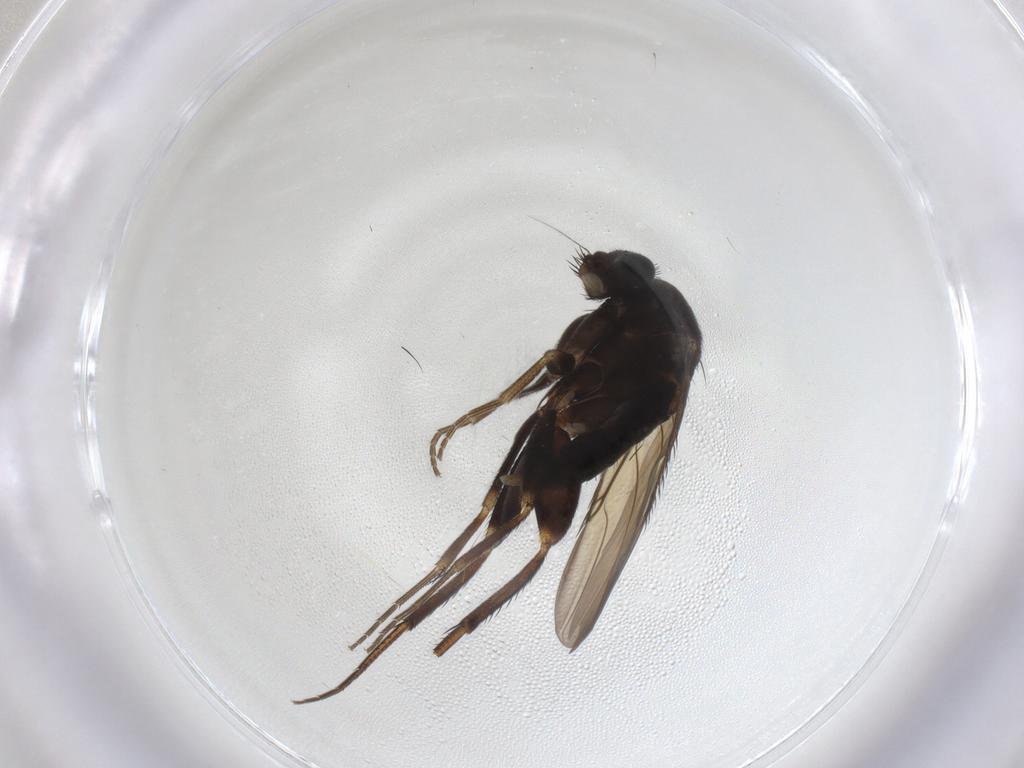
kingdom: Animalia
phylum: Arthropoda
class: Insecta
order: Diptera
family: Phoridae
